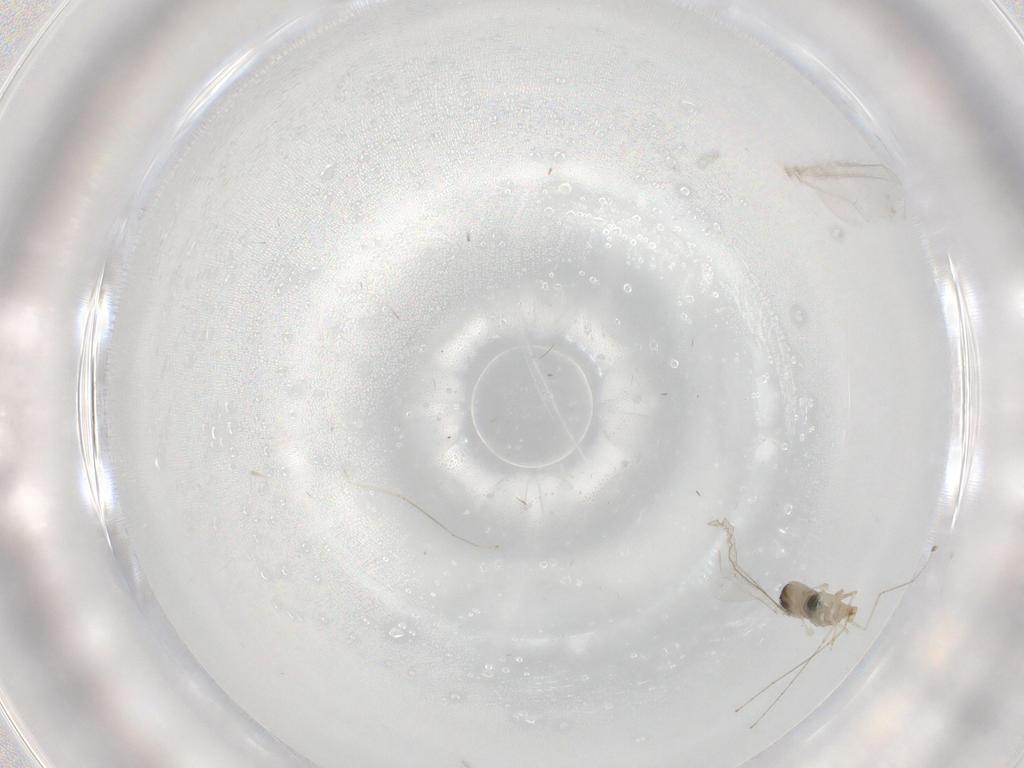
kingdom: Animalia
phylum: Arthropoda
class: Insecta
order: Diptera
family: Cecidomyiidae
